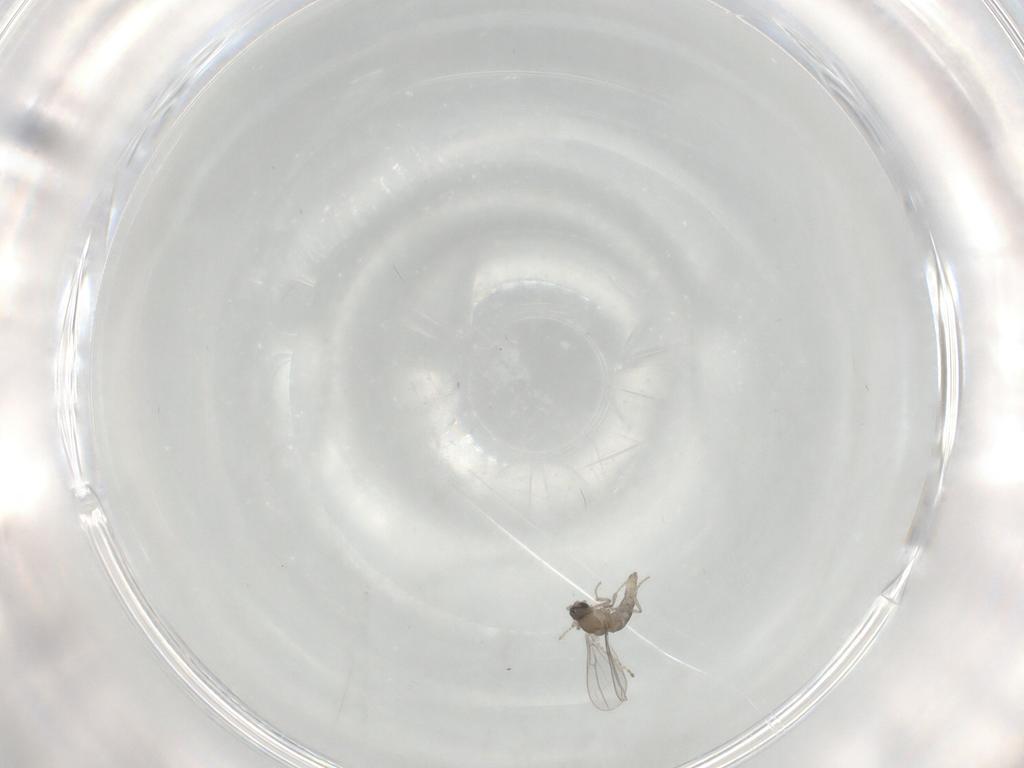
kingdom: Animalia
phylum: Arthropoda
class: Insecta
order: Diptera
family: Cecidomyiidae
